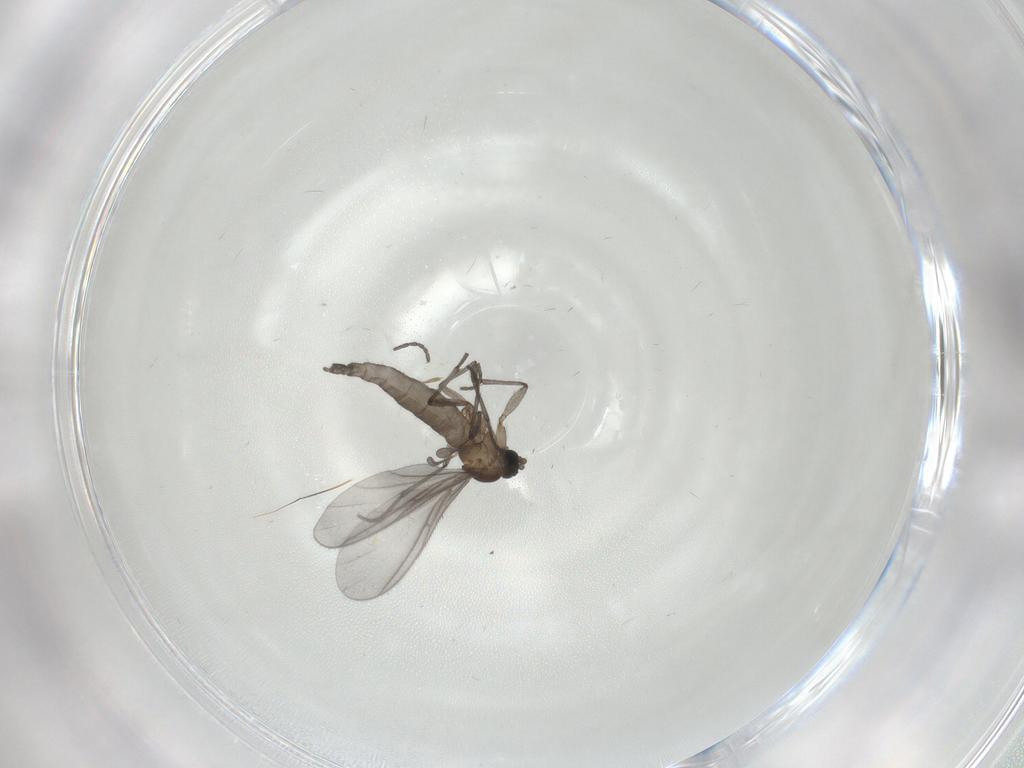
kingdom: Animalia
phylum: Arthropoda
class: Insecta
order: Diptera
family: Sciaridae
